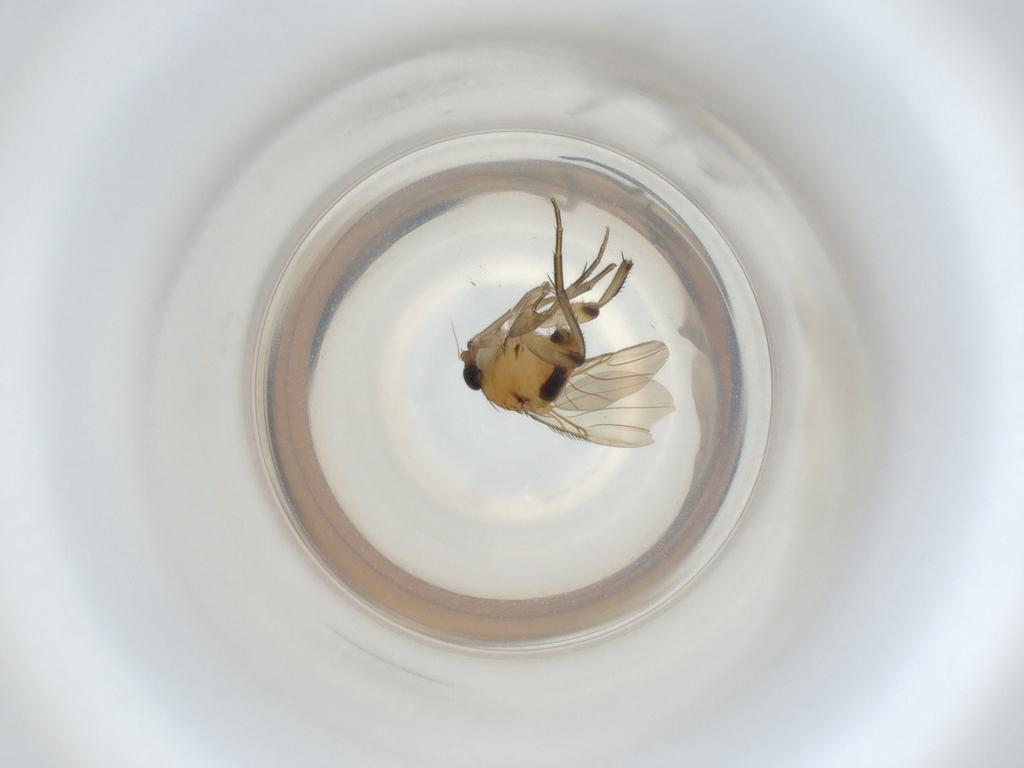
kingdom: Animalia
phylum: Arthropoda
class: Insecta
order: Diptera
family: Phoridae
